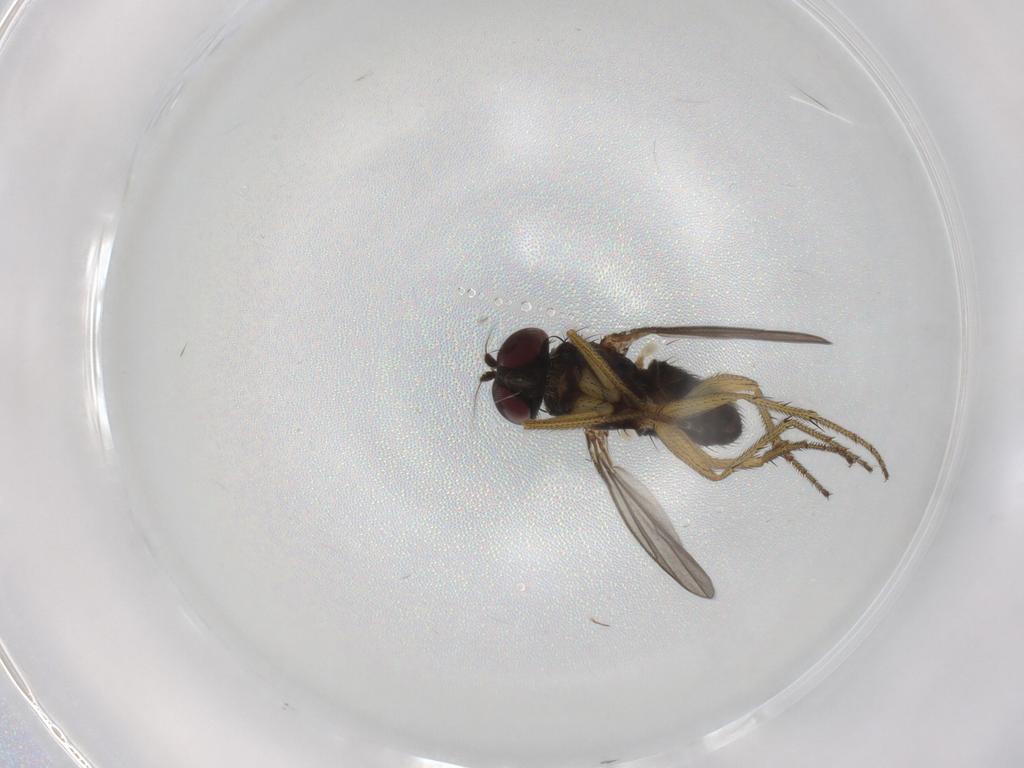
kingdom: Animalia
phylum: Arthropoda
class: Insecta
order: Diptera
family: Dolichopodidae
